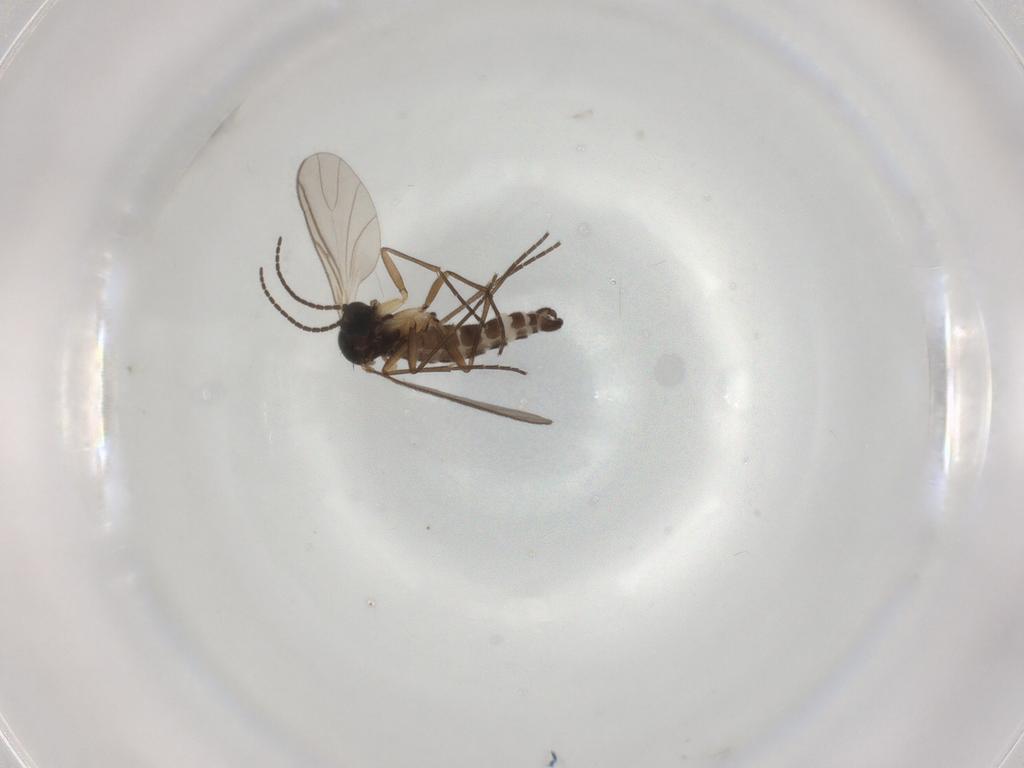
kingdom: Animalia
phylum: Arthropoda
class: Insecta
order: Diptera
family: Sciaridae
